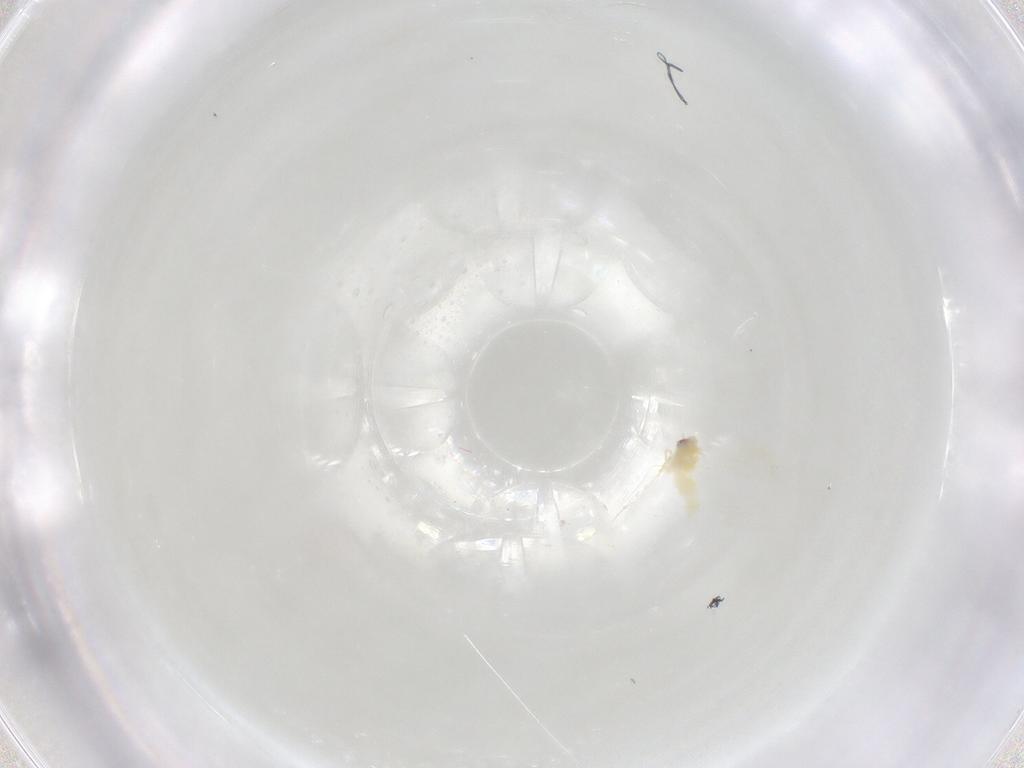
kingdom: Animalia
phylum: Arthropoda
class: Insecta
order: Hemiptera
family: Aleyrodidae
